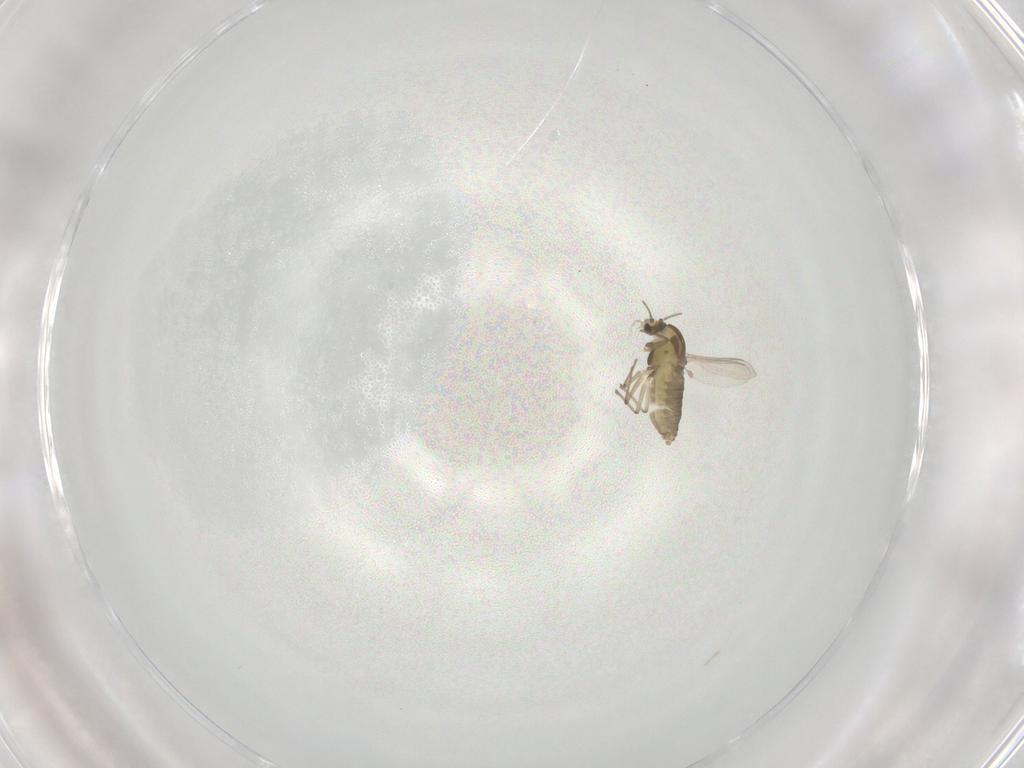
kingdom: Animalia
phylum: Arthropoda
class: Insecta
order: Diptera
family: Chironomidae
